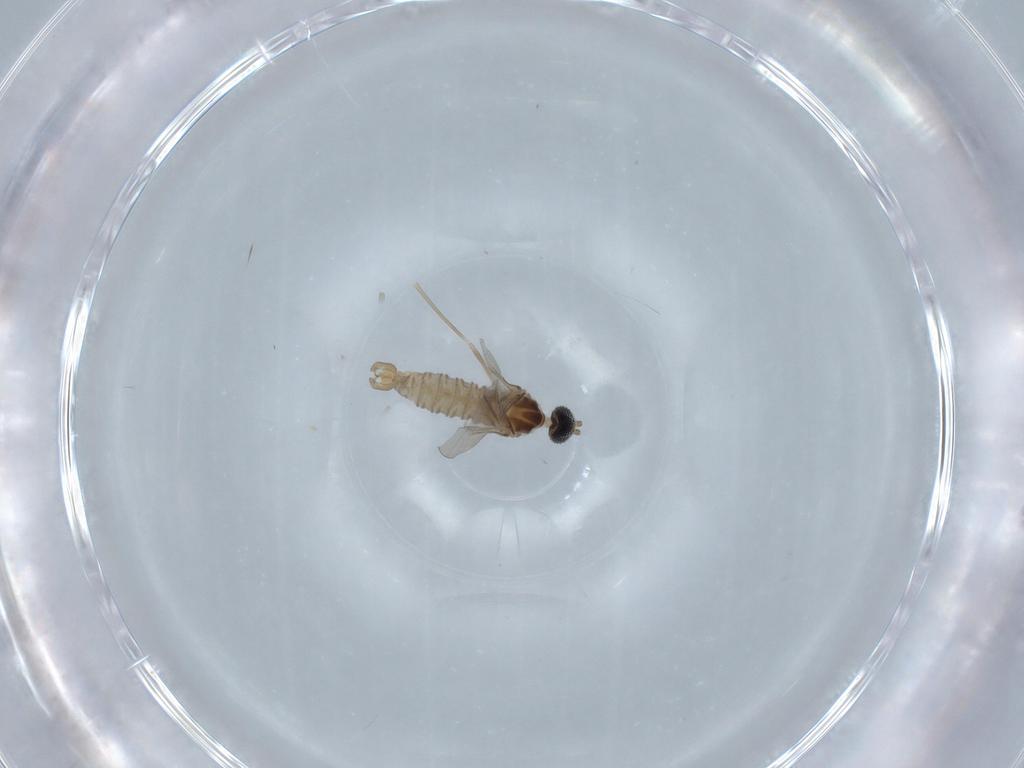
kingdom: Animalia
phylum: Arthropoda
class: Insecta
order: Diptera
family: Cecidomyiidae
